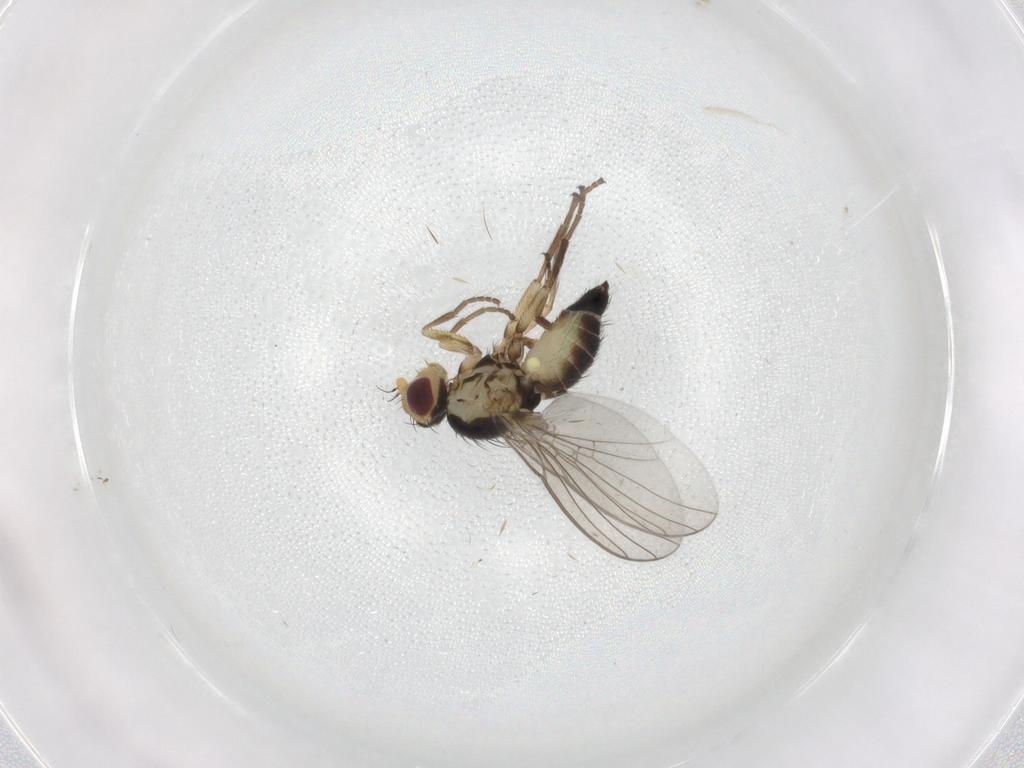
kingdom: Animalia
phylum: Arthropoda
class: Insecta
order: Diptera
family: Agromyzidae
